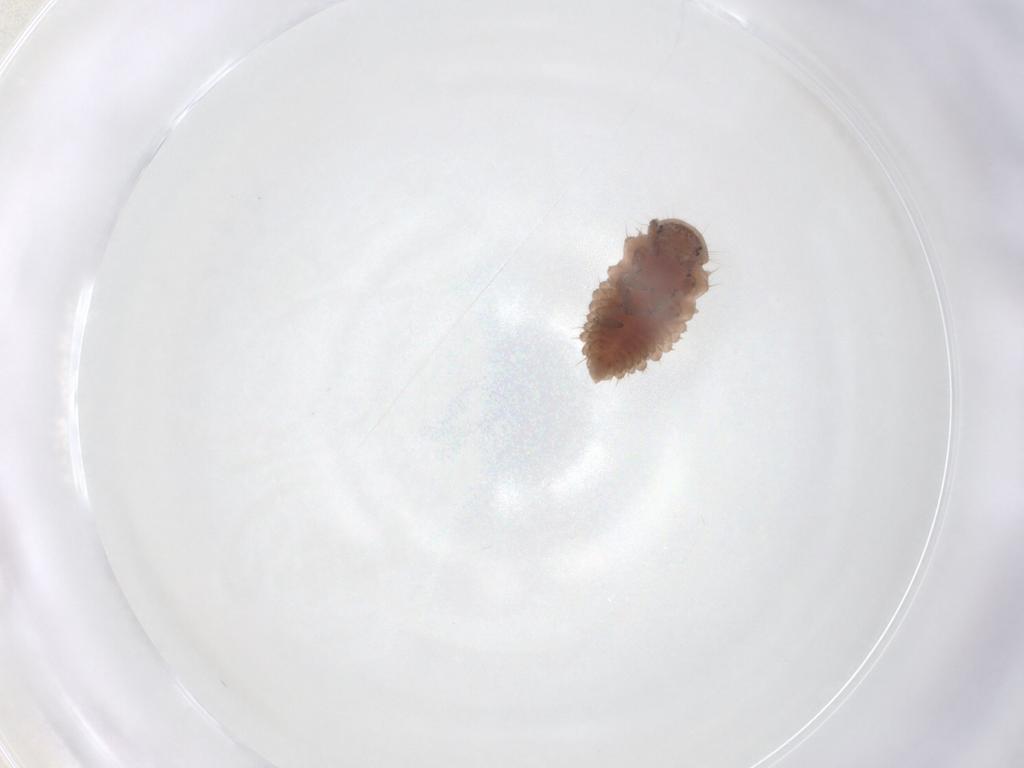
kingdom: Animalia
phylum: Arthropoda
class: Insecta
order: Coleoptera
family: Coccinellidae
